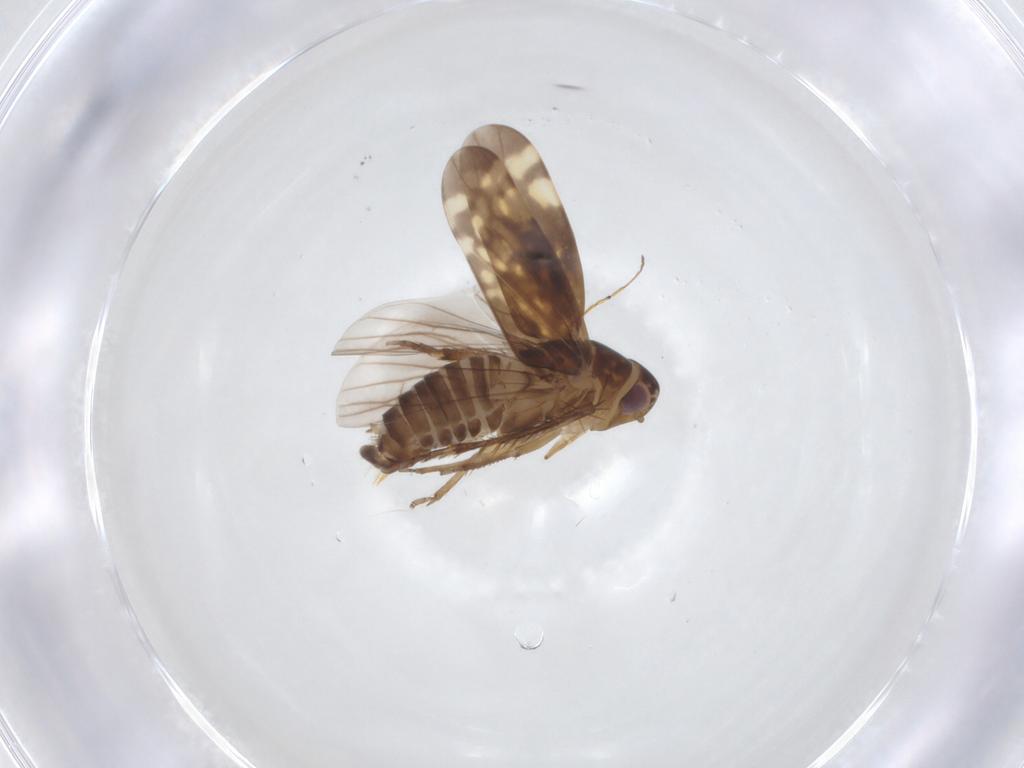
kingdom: Animalia
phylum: Arthropoda
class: Insecta
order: Hemiptera
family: Cicadellidae
